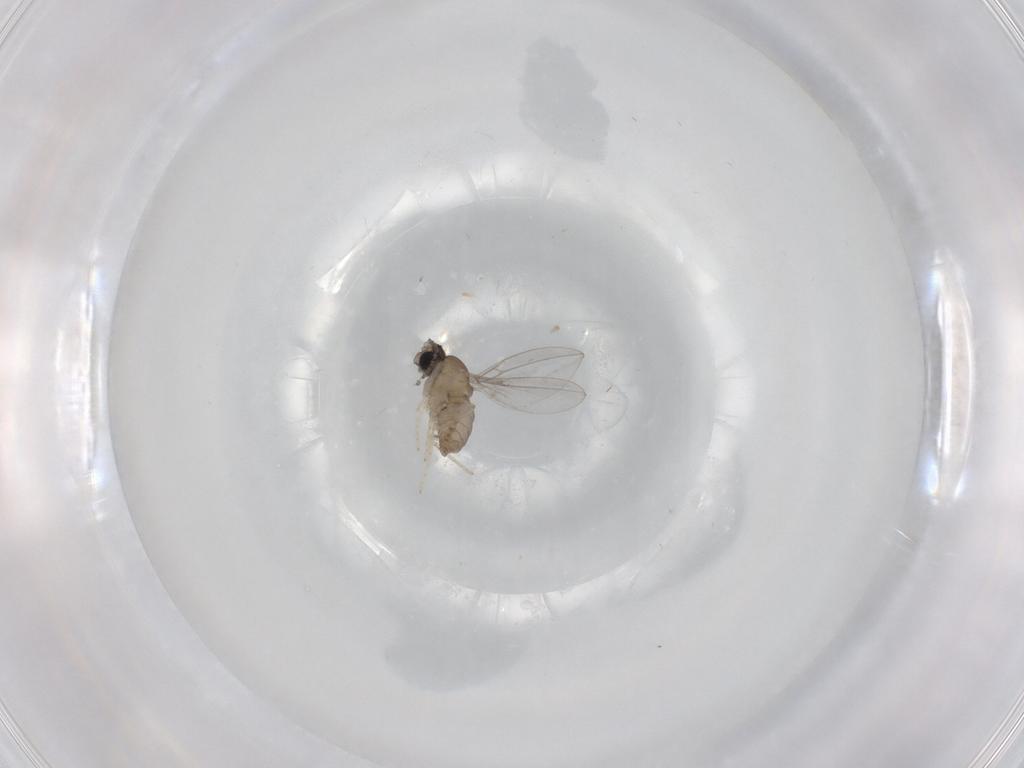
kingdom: Animalia
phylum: Arthropoda
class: Insecta
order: Diptera
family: Cecidomyiidae
